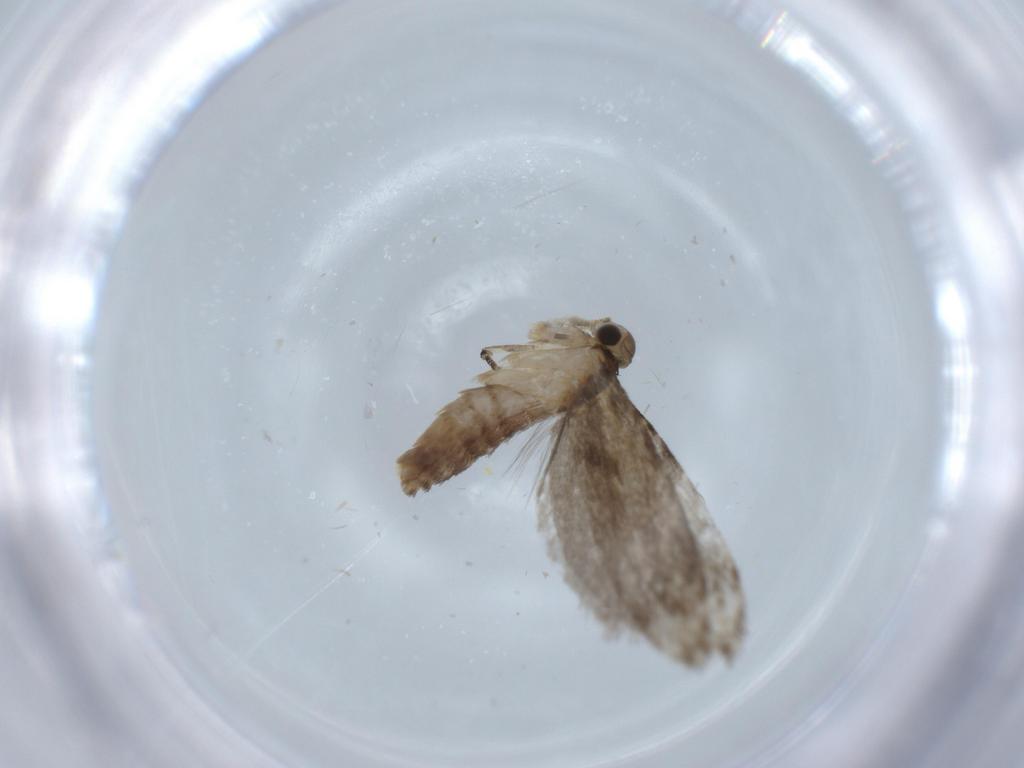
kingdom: Animalia
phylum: Arthropoda
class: Insecta
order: Lepidoptera
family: Tineidae
